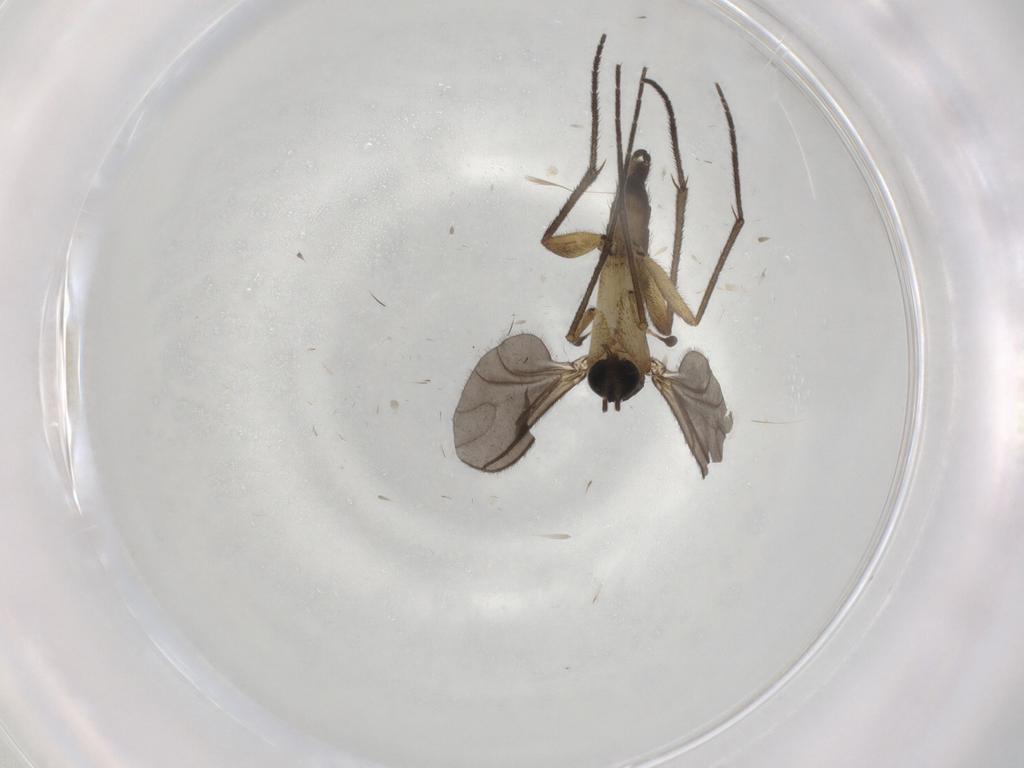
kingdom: Animalia
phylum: Arthropoda
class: Insecta
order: Diptera
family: Sciaridae
